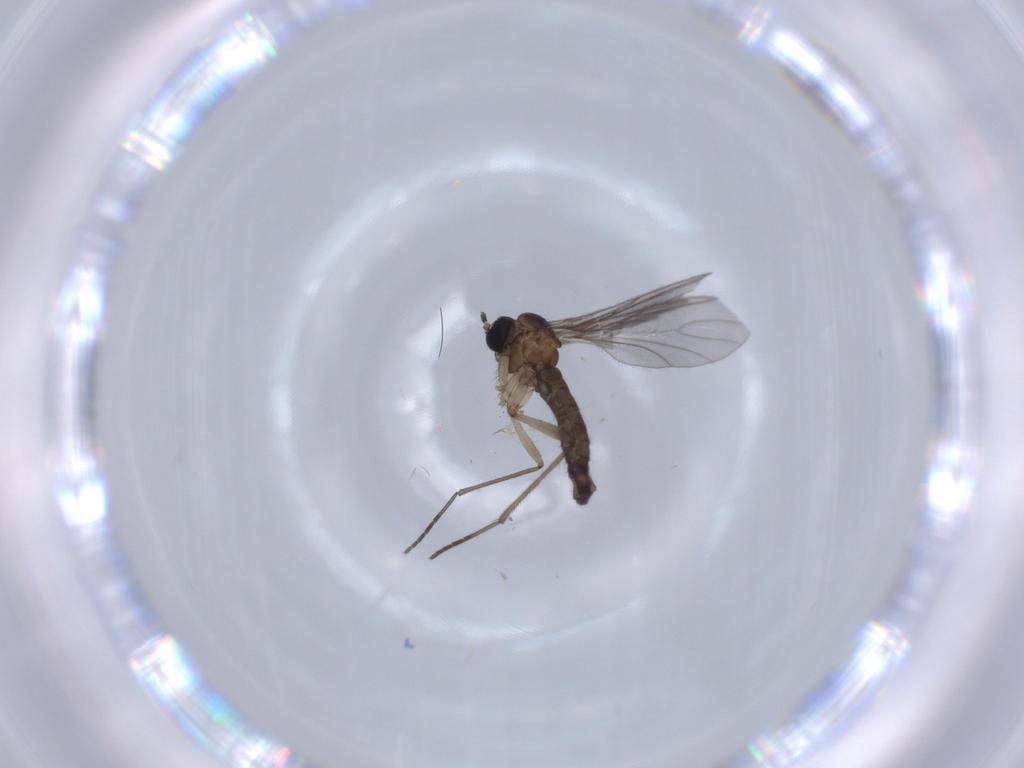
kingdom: Animalia
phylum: Arthropoda
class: Insecta
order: Diptera
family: Sciaridae
